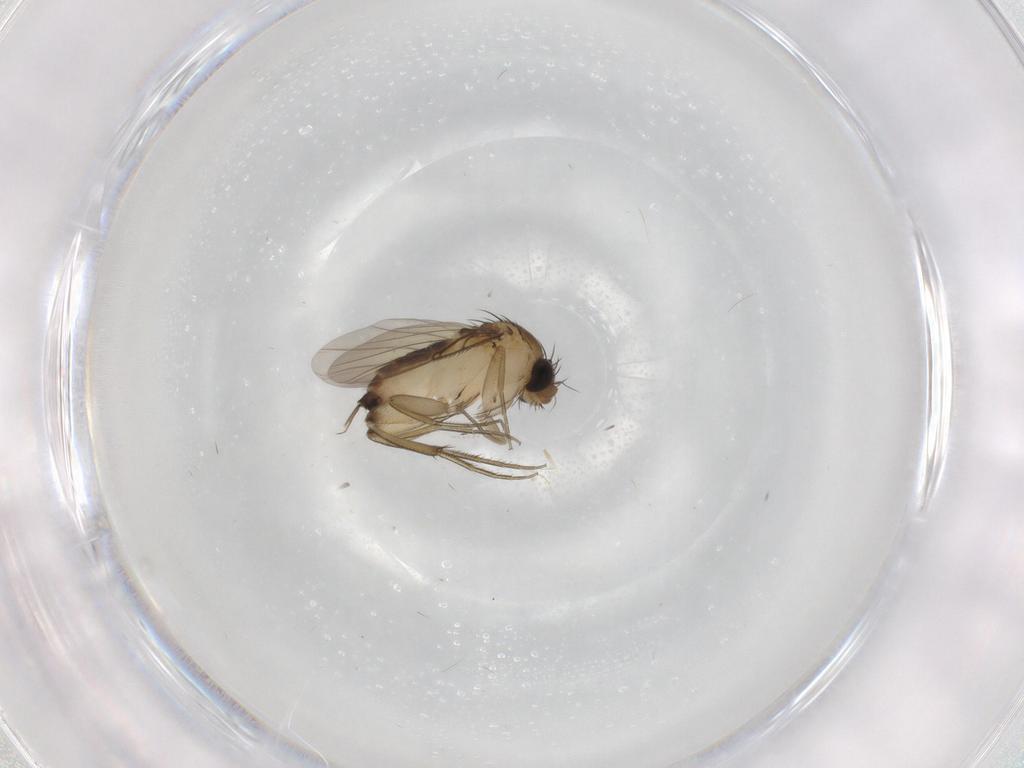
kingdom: Animalia
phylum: Arthropoda
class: Insecta
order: Diptera
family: Phoridae
